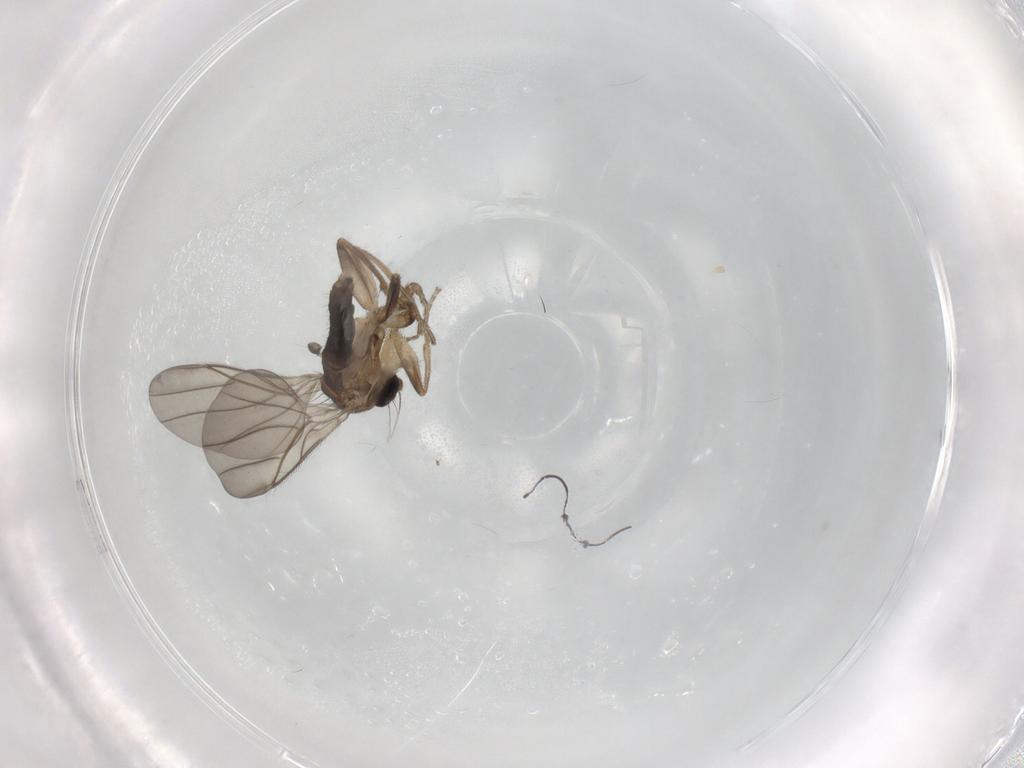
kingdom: Animalia
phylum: Arthropoda
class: Insecta
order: Diptera
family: Phoridae
